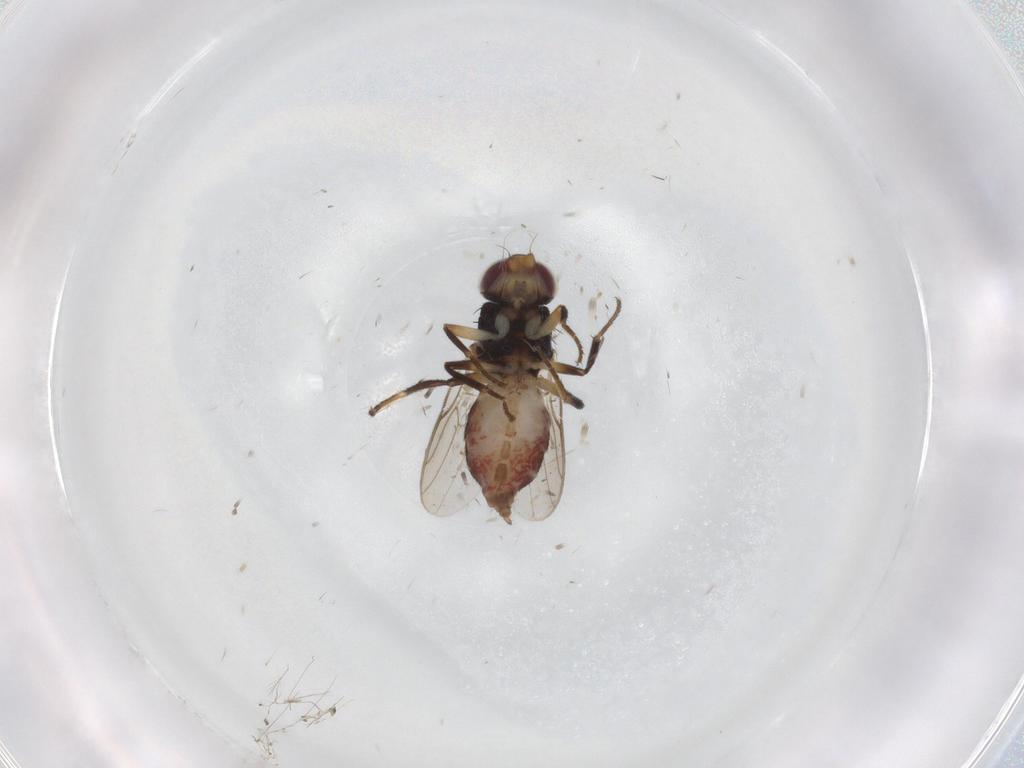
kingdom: Animalia
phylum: Arthropoda
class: Insecta
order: Diptera
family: Chloropidae
